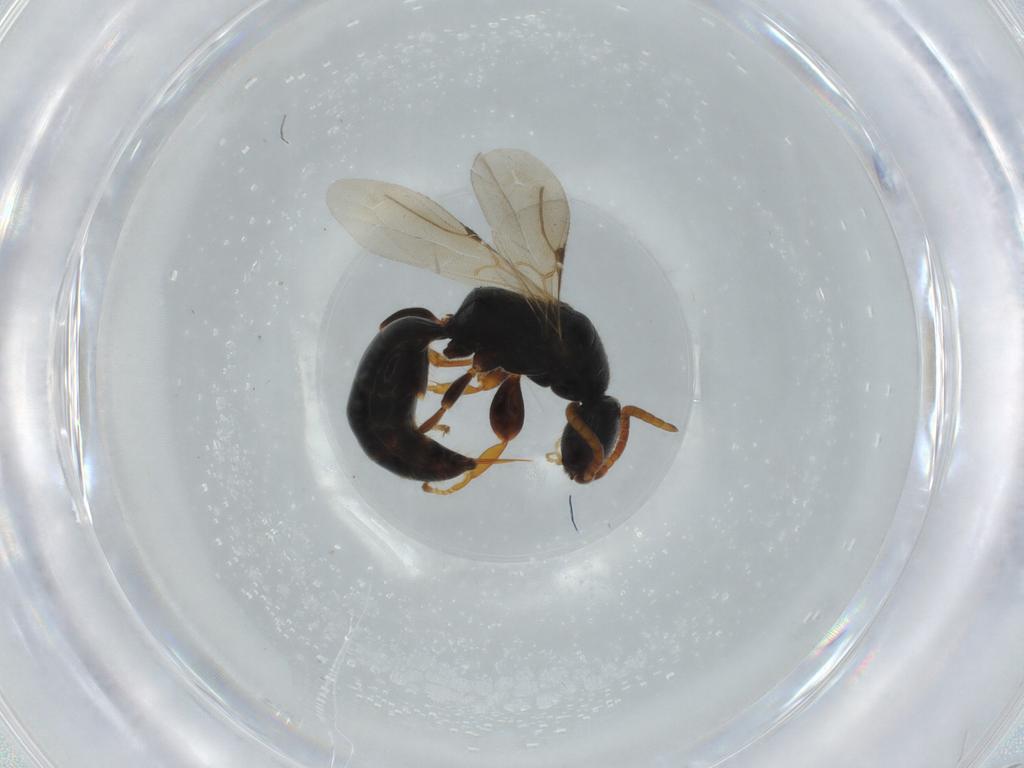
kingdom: Animalia
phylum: Arthropoda
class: Insecta
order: Hymenoptera
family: Bethylidae
